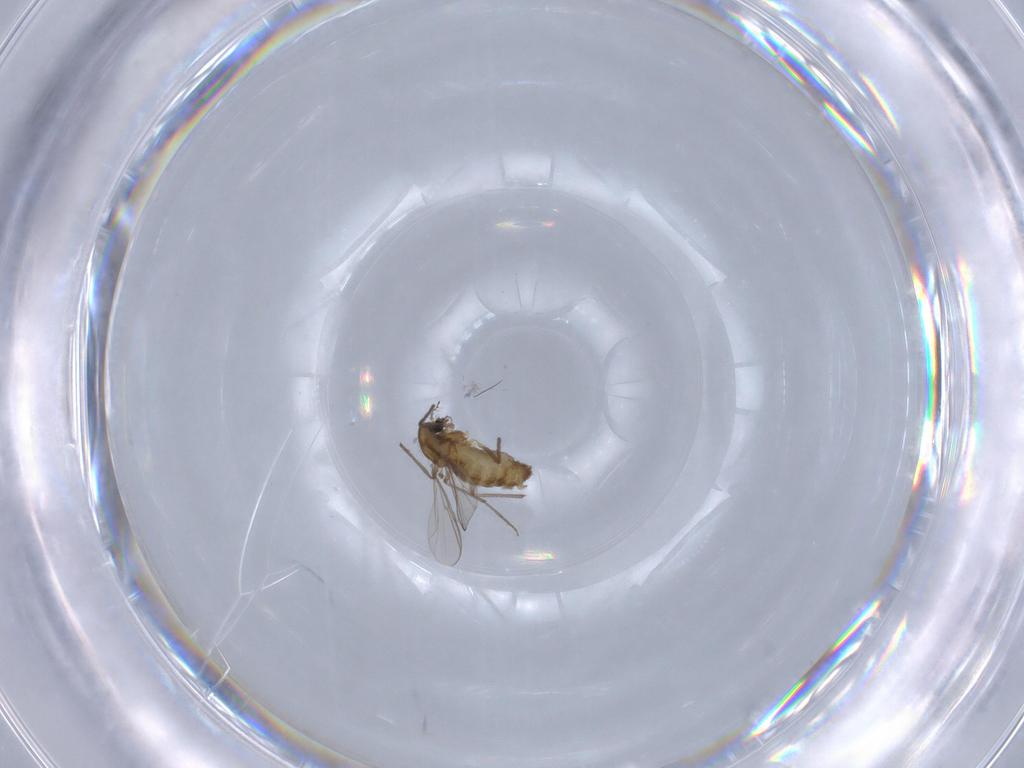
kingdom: Animalia
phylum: Arthropoda
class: Insecta
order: Diptera
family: Chironomidae
